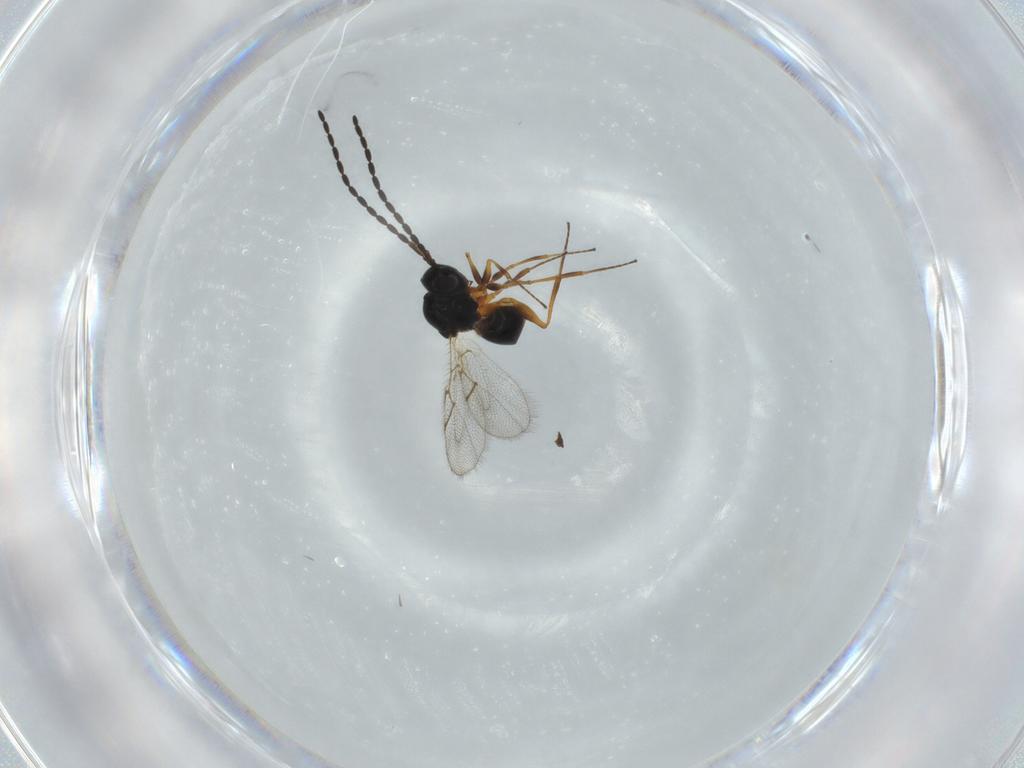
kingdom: Animalia
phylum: Arthropoda
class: Insecta
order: Hymenoptera
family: Figitidae
